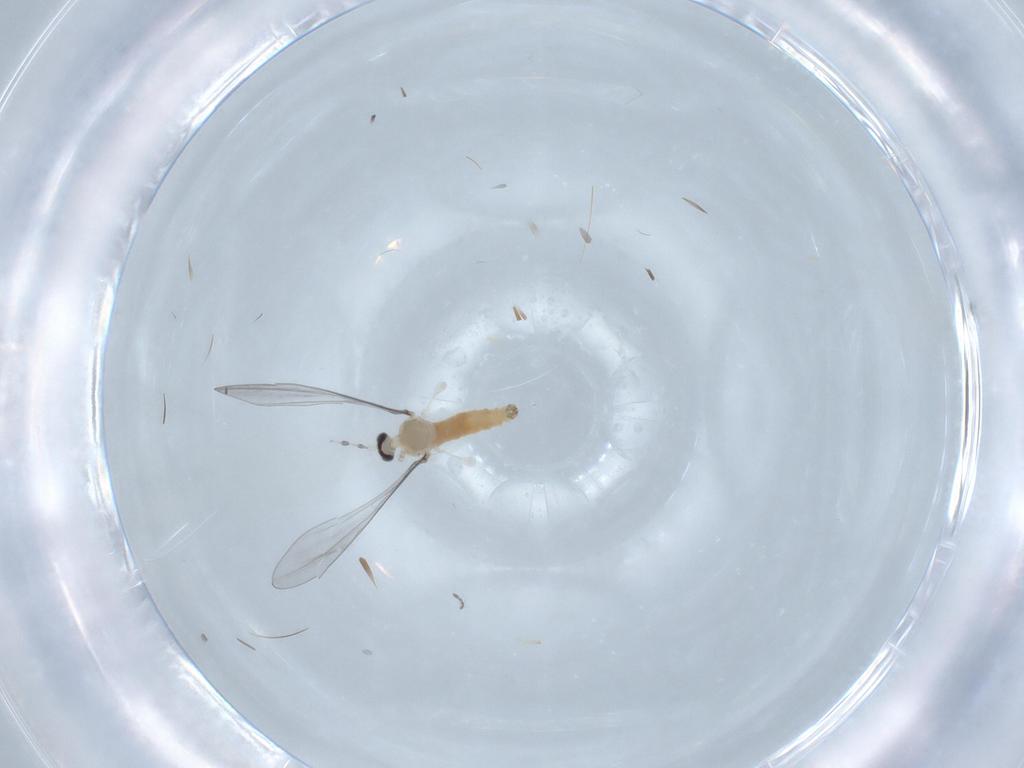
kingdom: Animalia
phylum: Arthropoda
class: Insecta
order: Diptera
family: Cecidomyiidae
